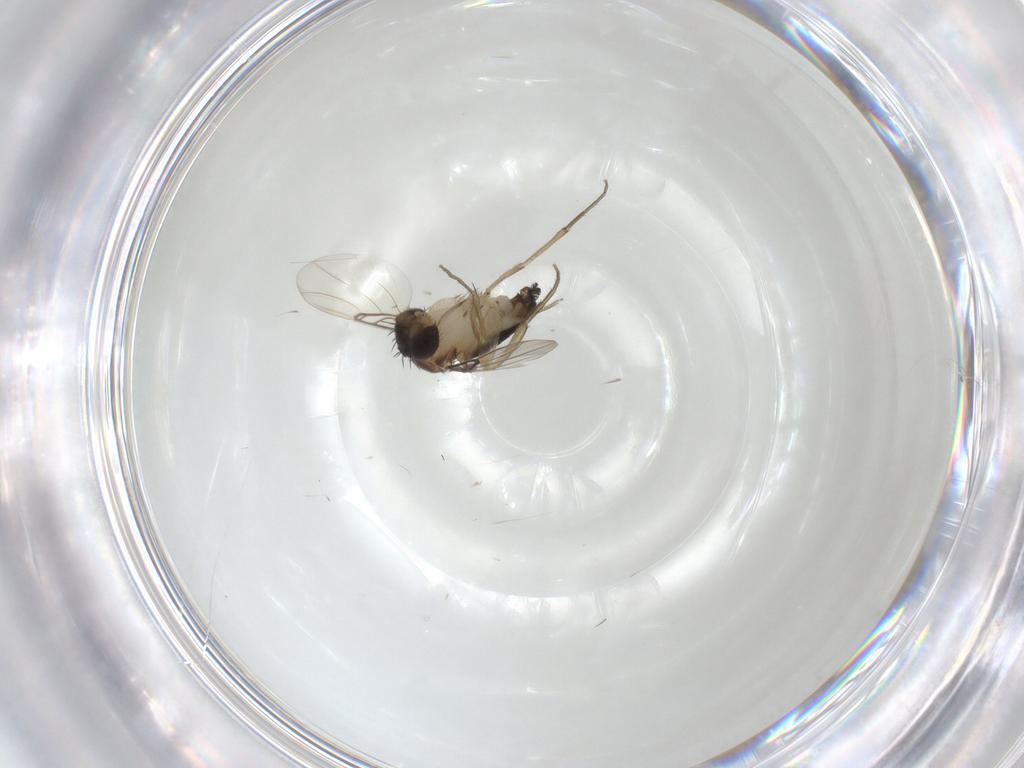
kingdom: Animalia
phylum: Arthropoda
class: Insecta
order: Diptera
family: Phoridae
